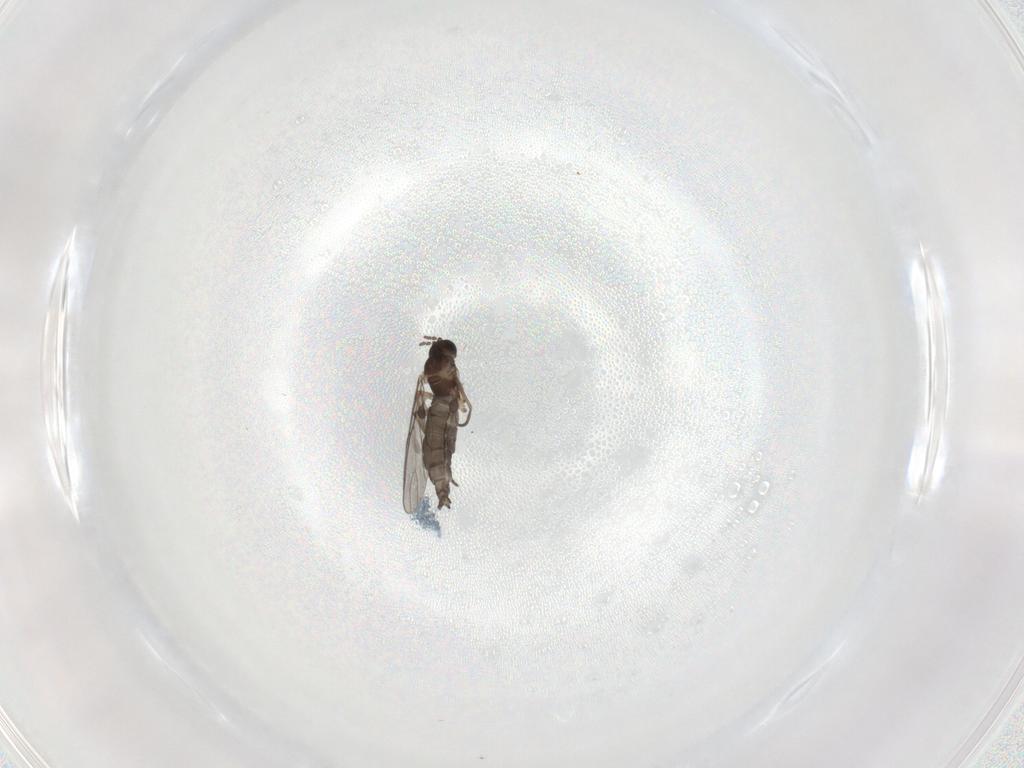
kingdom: Animalia
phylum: Arthropoda
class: Insecta
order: Diptera
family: Sciaridae
